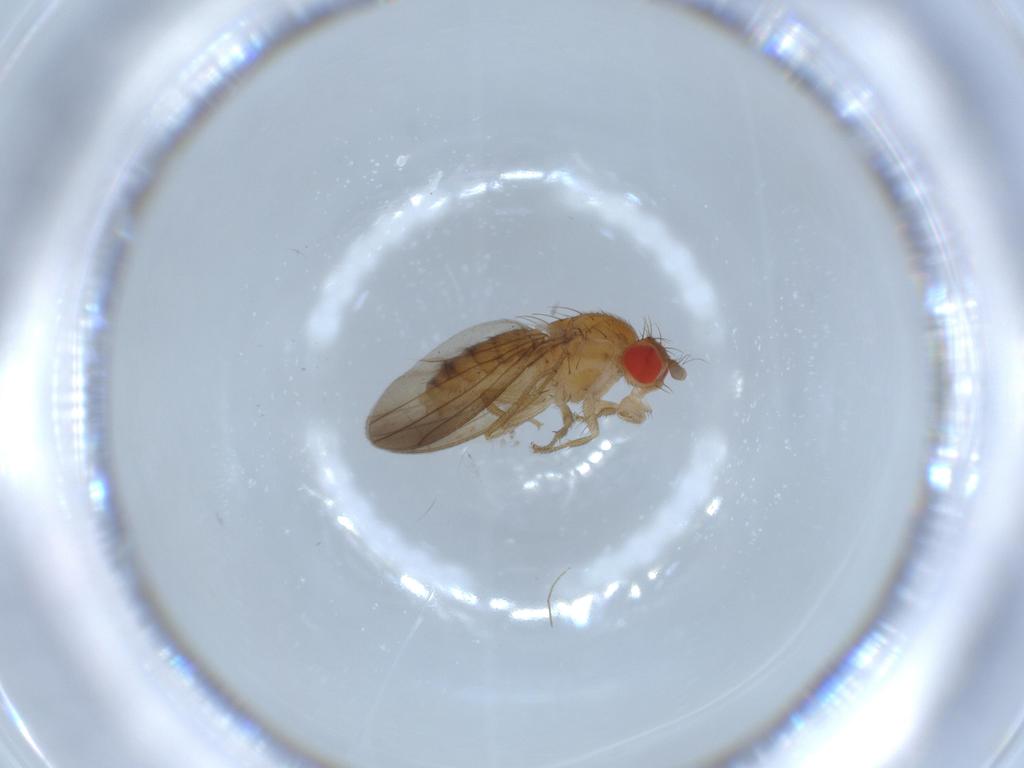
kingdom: Animalia
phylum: Arthropoda
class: Insecta
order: Diptera
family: Drosophilidae
